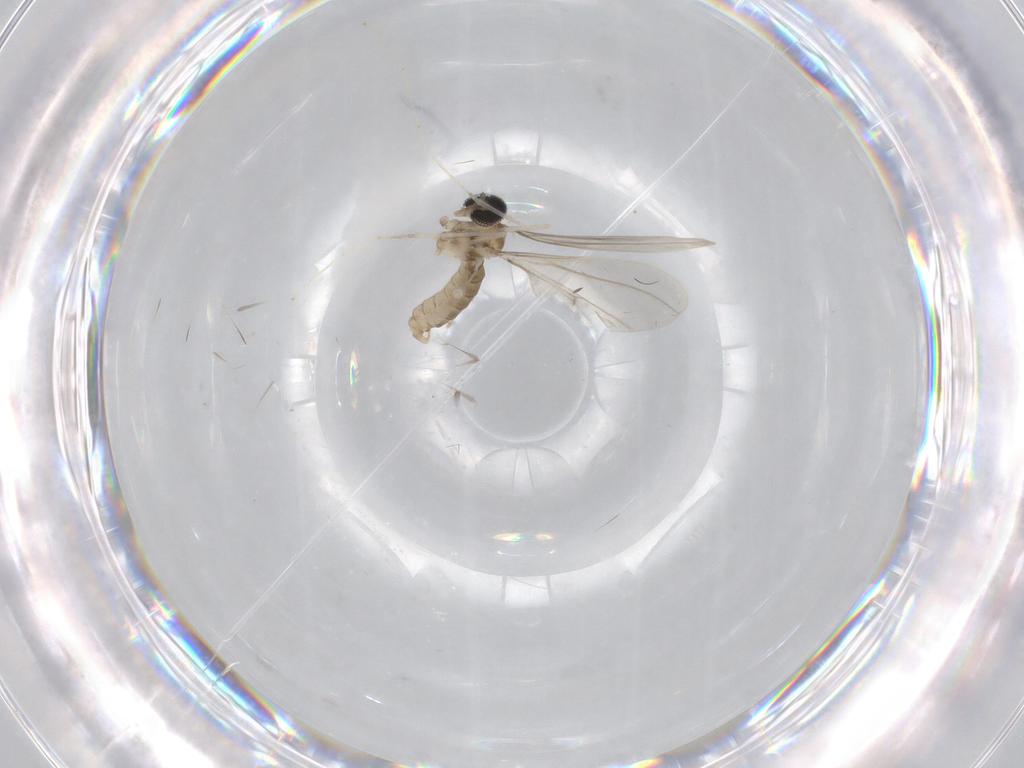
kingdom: Animalia
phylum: Arthropoda
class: Insecta
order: Diptera
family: Cecidomyiidae
